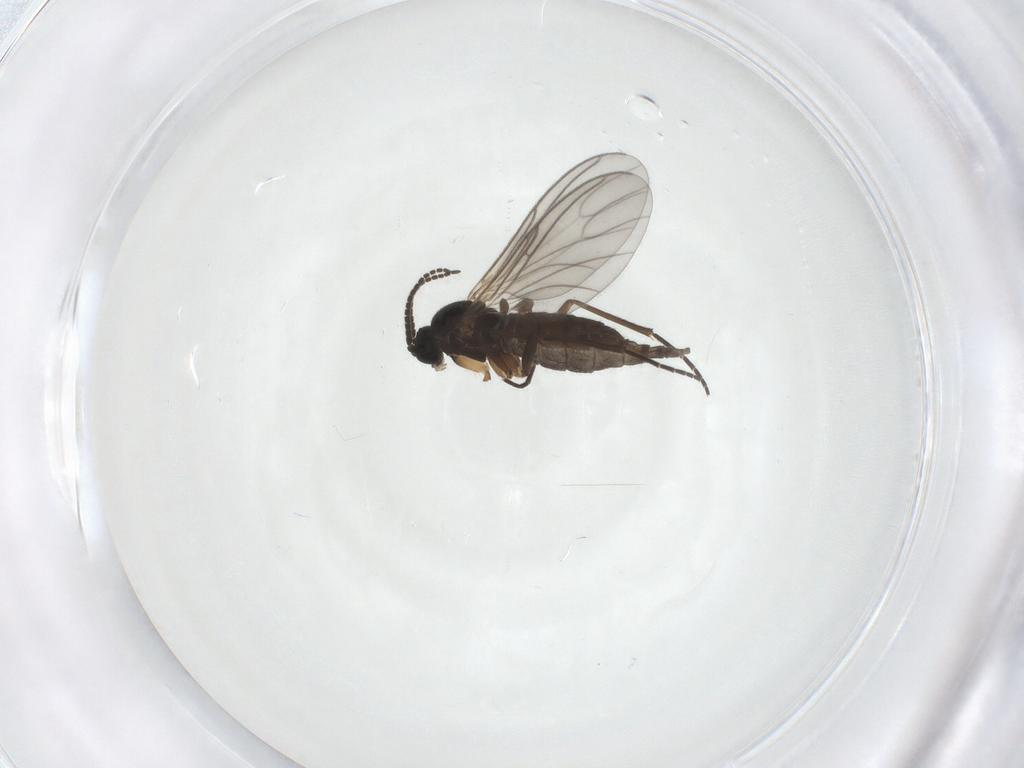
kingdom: Animalia
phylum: Arthropoda
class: Insecta
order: Diptera
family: Sciaridae
